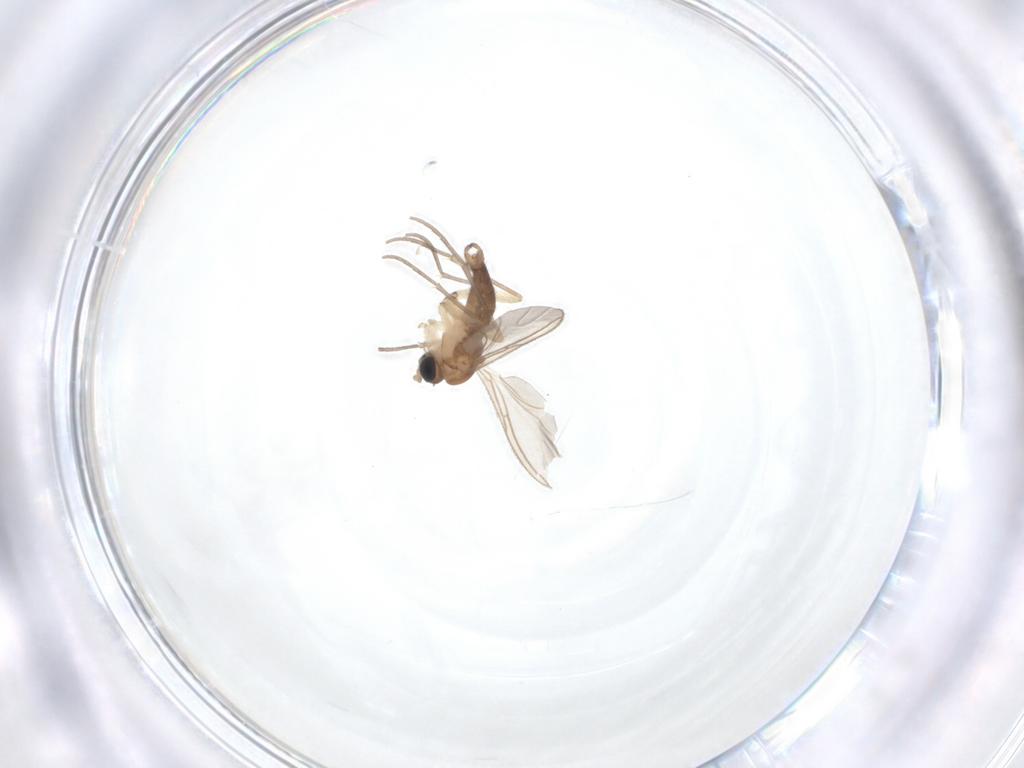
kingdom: Animalia
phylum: Arthropoda
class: Insecta
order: Diptera
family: Sciaridae
